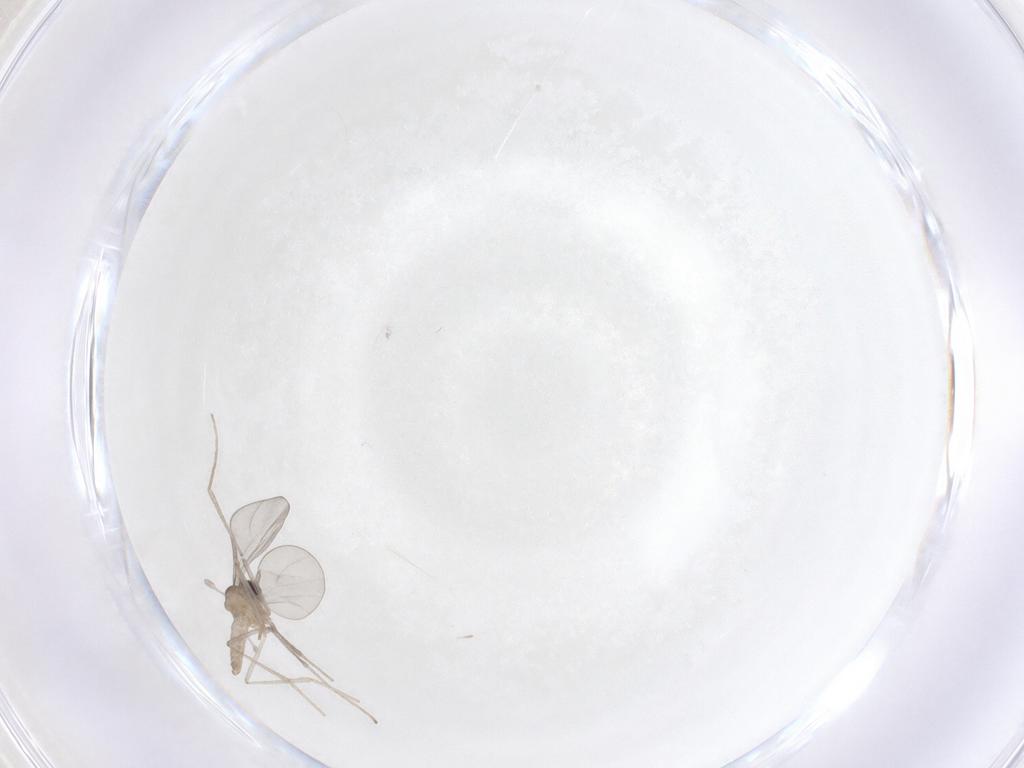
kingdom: Animalia
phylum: Arthropoda
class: Insecta
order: Diptera
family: Cecidomyiidae
